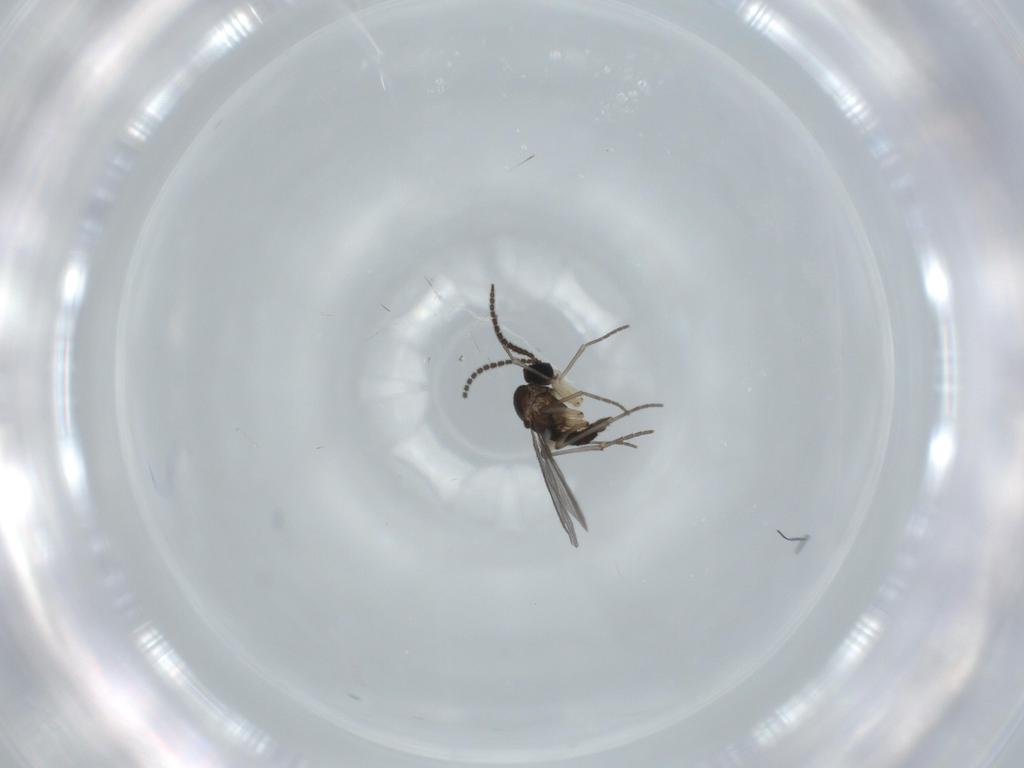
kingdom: Animalia
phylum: Arthropoda
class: Insecta
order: Diptera
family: Sciaridae
